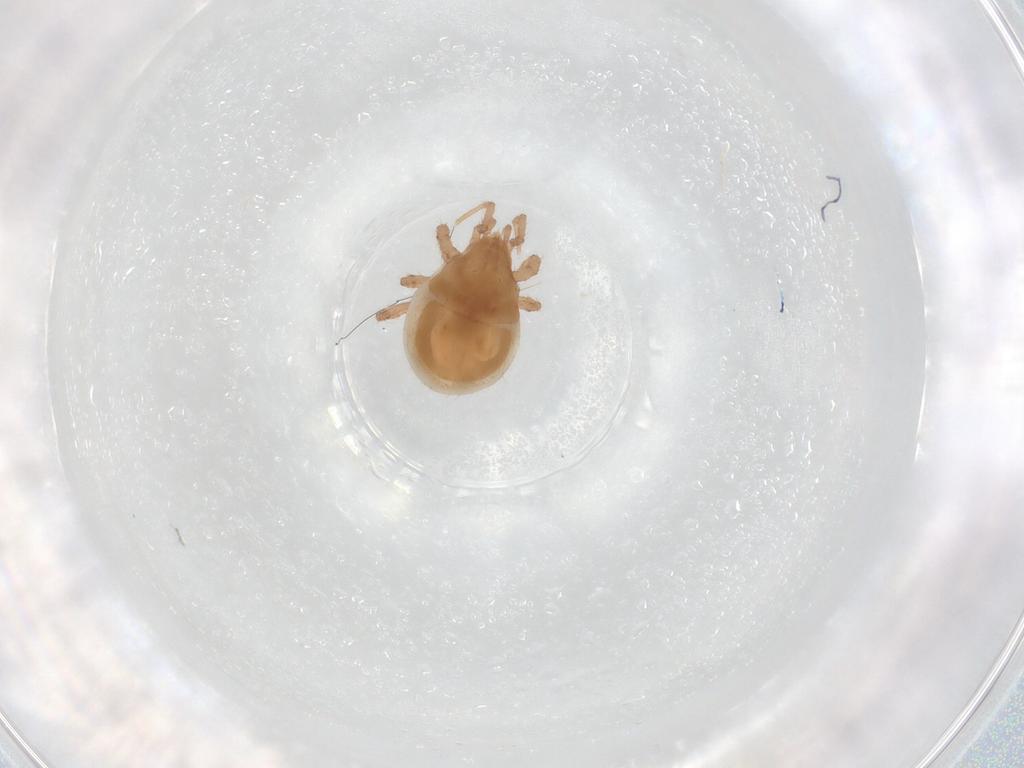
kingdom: Animalia
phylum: Arthropoda
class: Arachnida
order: Mesostigmata
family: Parasitidae
